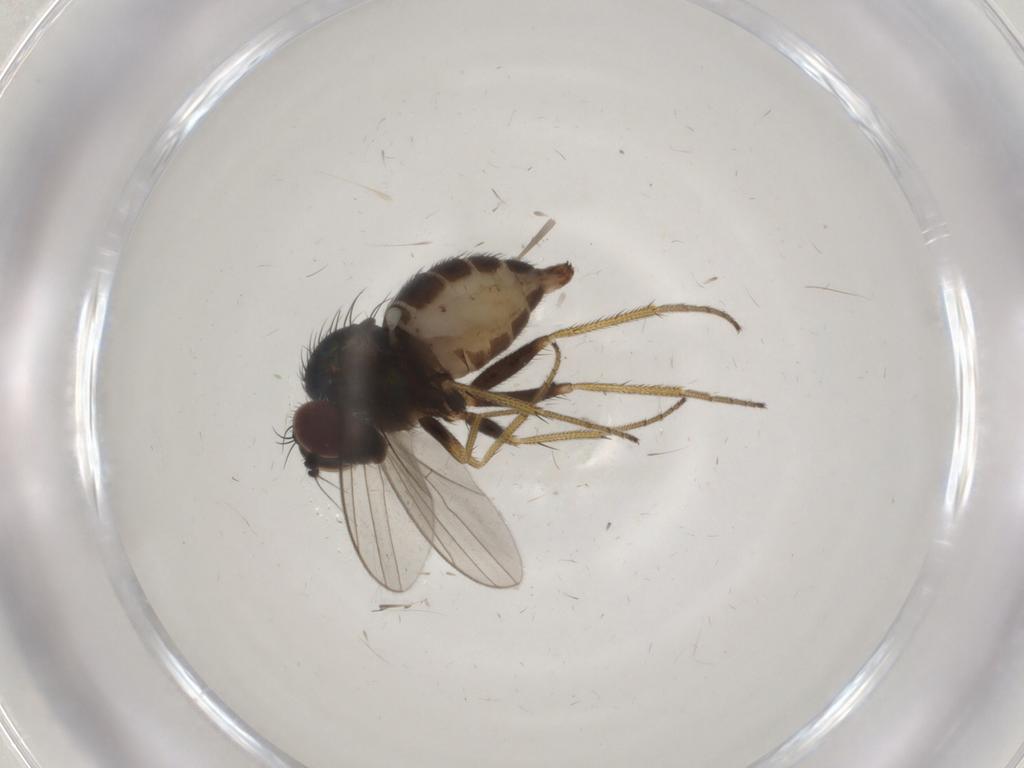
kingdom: Animalia
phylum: Arthropoda
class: Insecta
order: Diptera
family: Dolichopodidae
